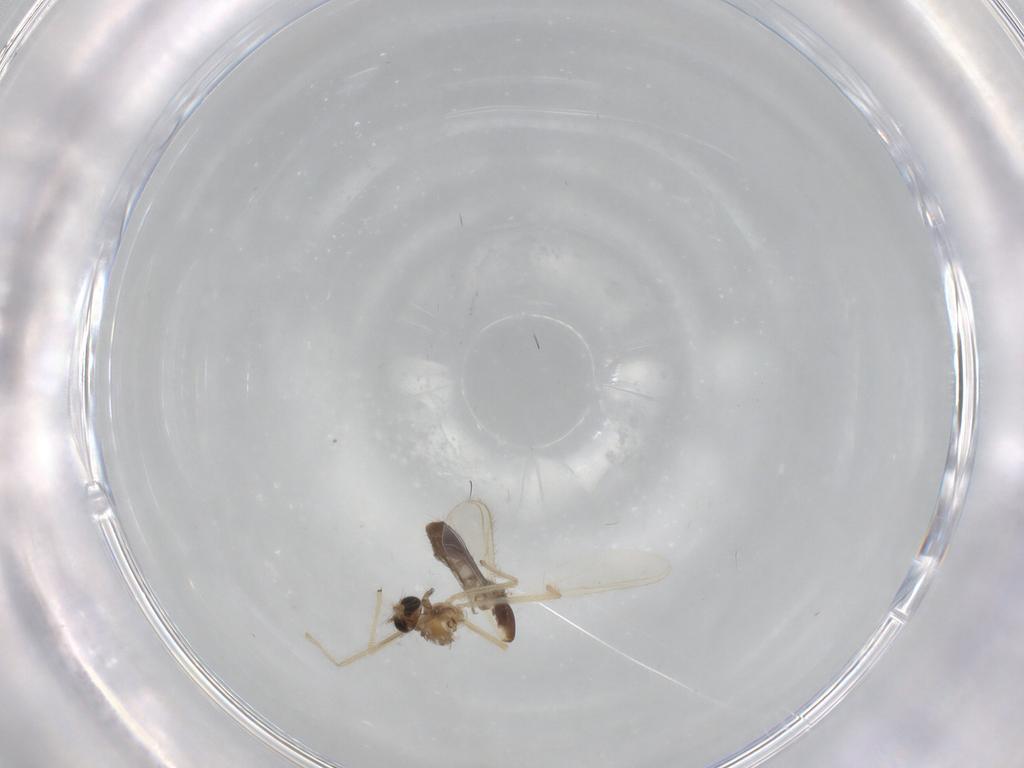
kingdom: Animalia
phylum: Arthropoda
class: Insecta
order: Diptera
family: Chironomidae
